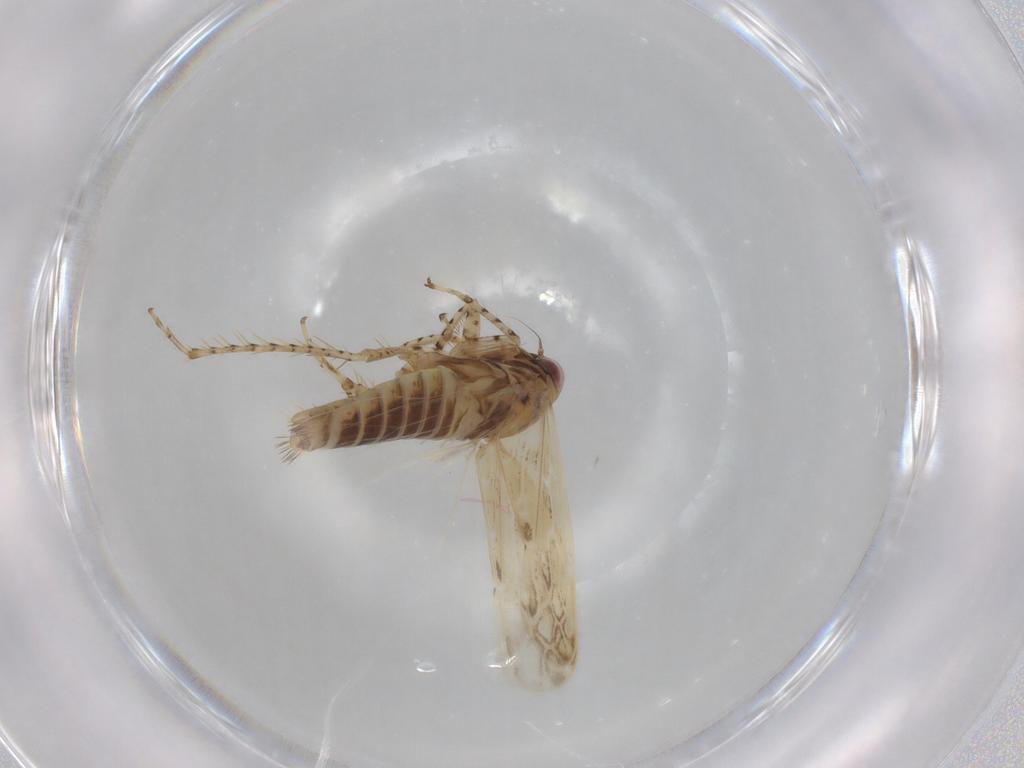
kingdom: Animalia
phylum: Arthropoda
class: Insecta
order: Hemiptera
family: Cicadellidae
